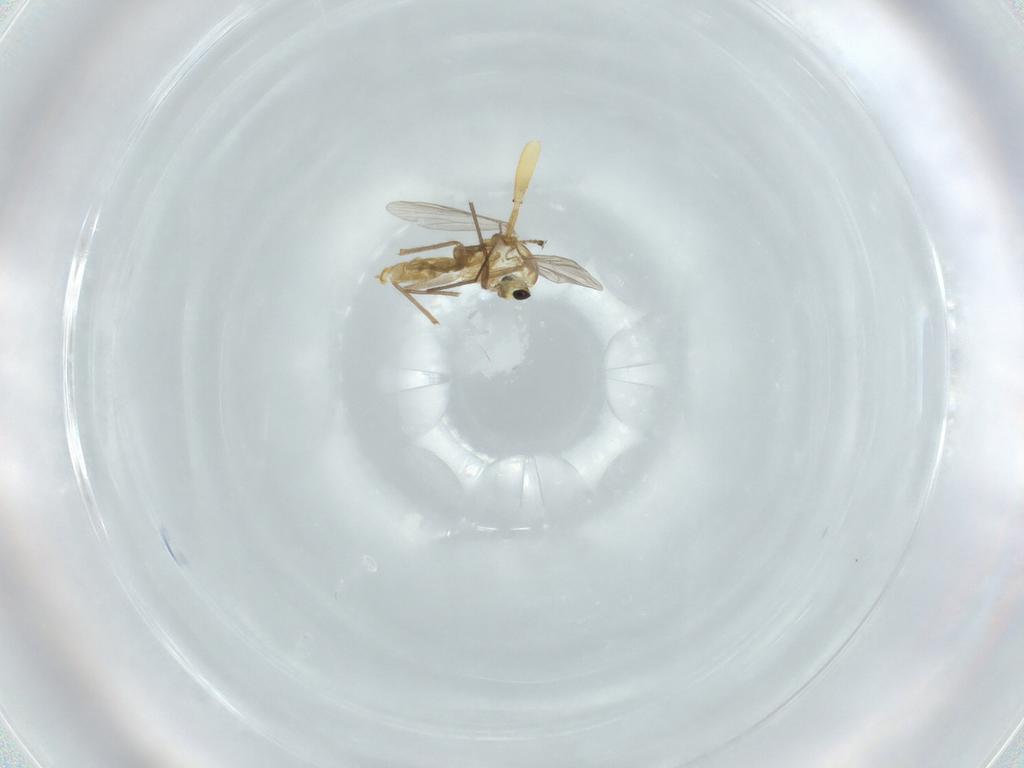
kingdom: Animalia
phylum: Arthropoda
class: Insecta
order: Diptera
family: Chironomidae
